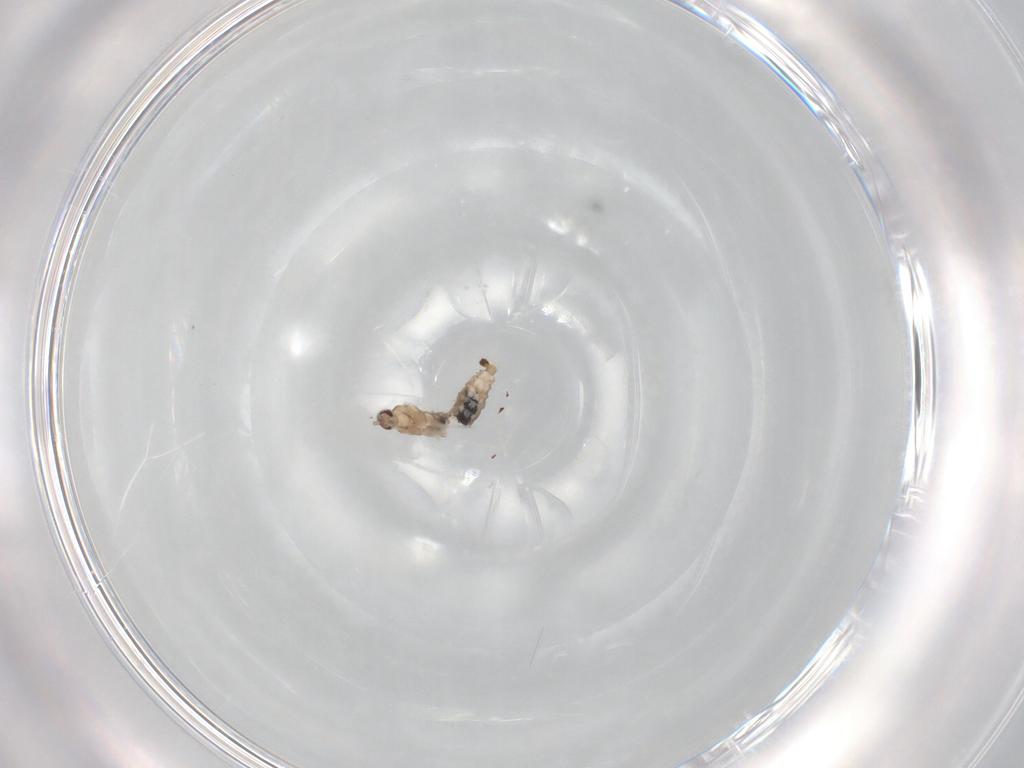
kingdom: Animalia
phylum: Arthropoda
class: Insecta
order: Diptera
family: Cecidomyiidae
